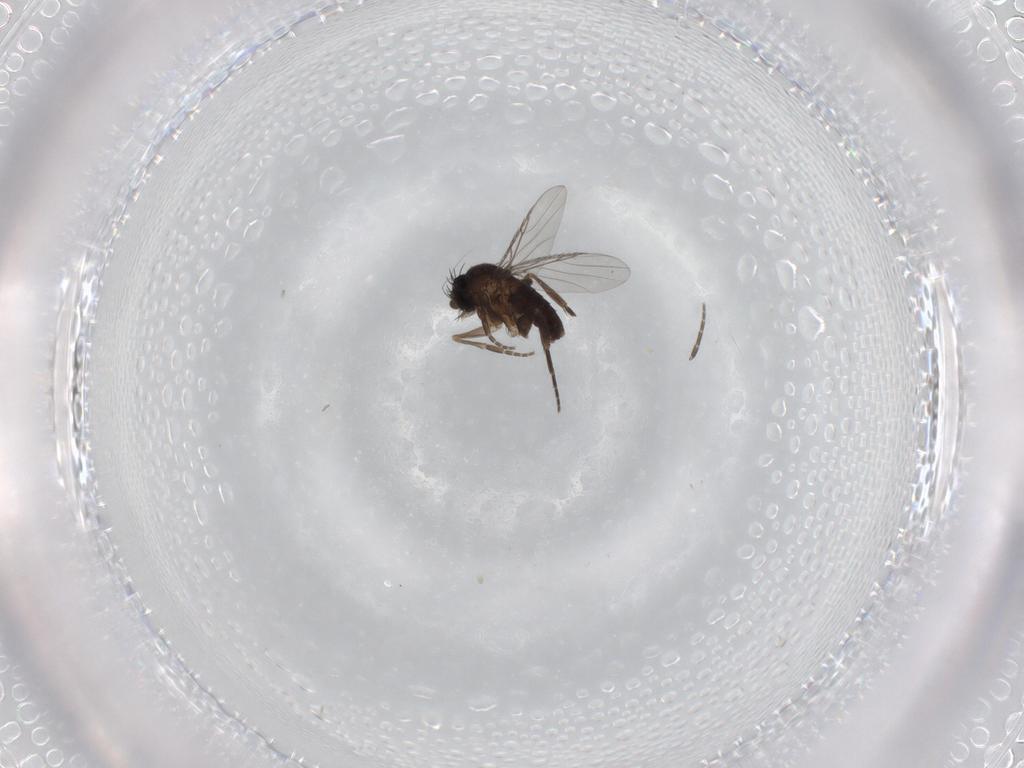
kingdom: Animalia
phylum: Arthropoda
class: Insecta
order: Diptera
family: Phoridae
